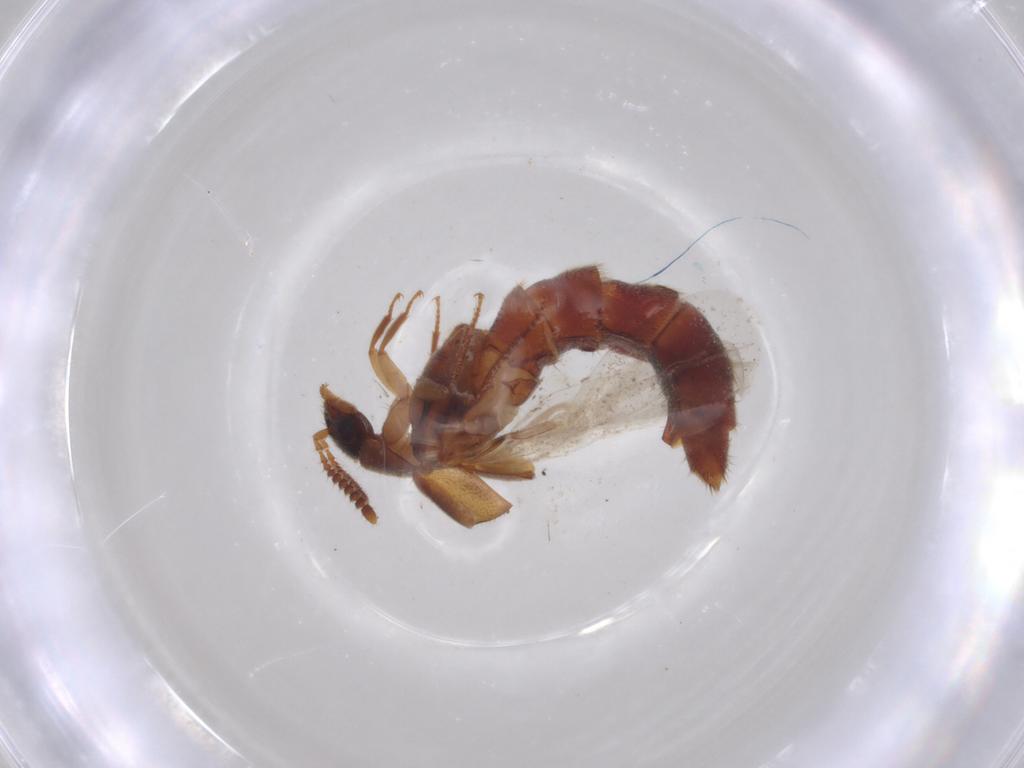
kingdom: Animalia
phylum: Arthropoda
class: Insecta
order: Coleoptera
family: Staphylinidae
